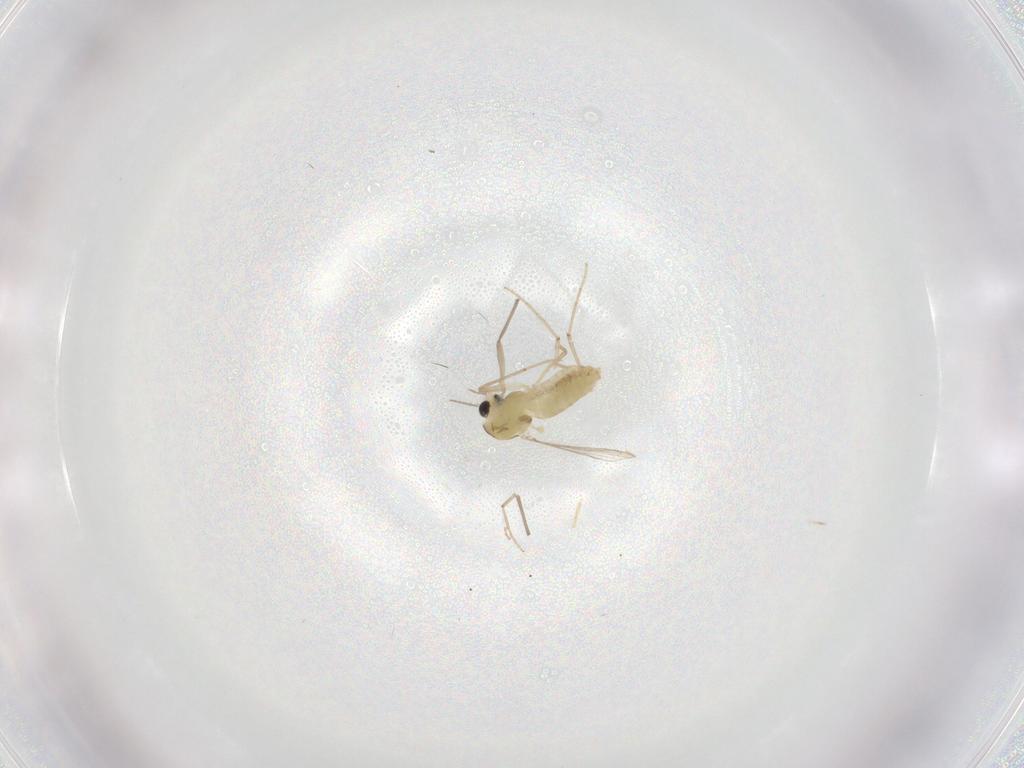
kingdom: Animalia
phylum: Arthropoda
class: Insecta
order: Diptera
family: Chironomidae
